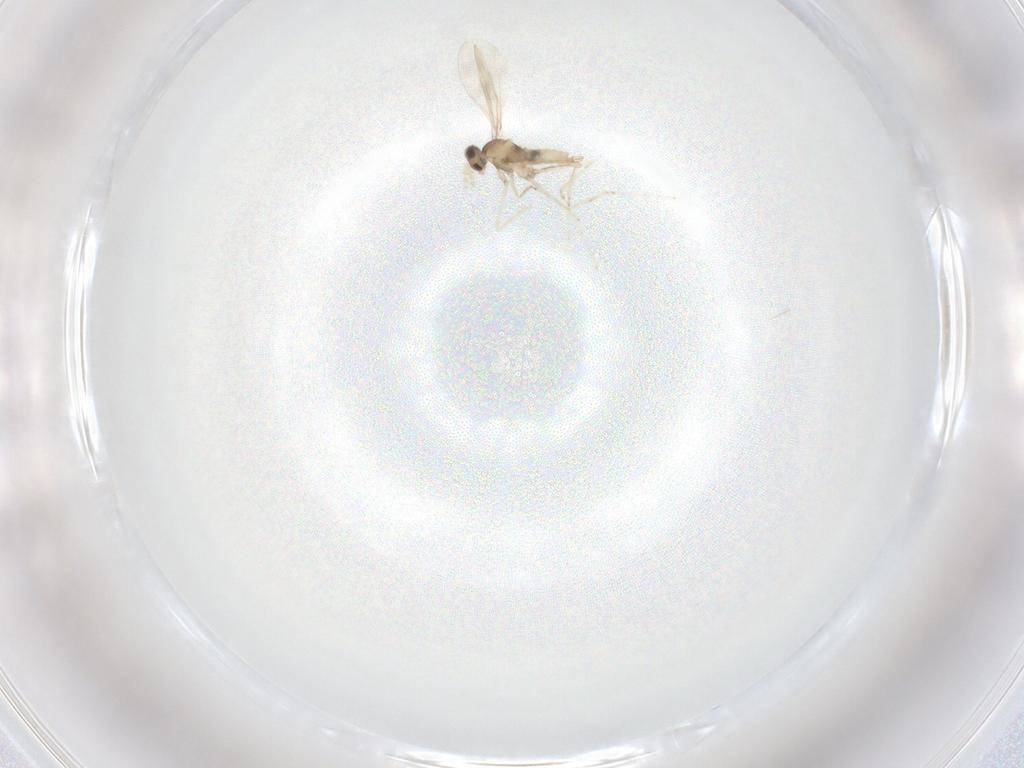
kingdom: Animalia
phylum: Arthropoda
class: Insecta
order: Diptera
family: Cecidomyiidae
